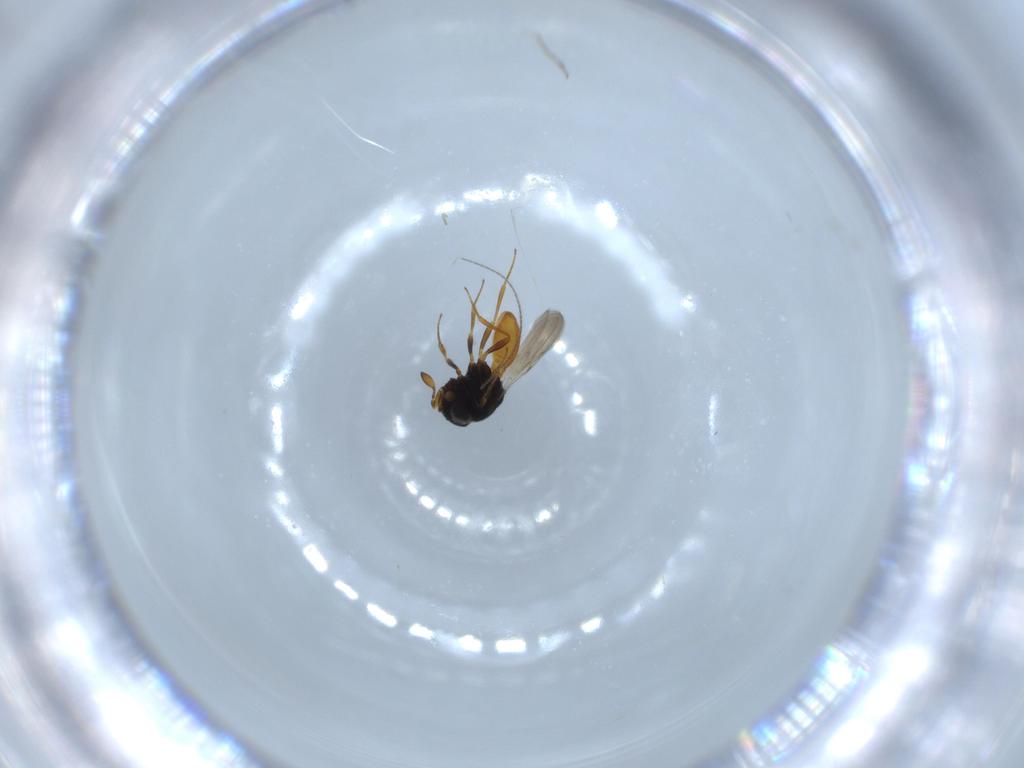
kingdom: Animalia
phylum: Arthropoda
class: Insecta
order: Hymenoptera
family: Scelionidae
